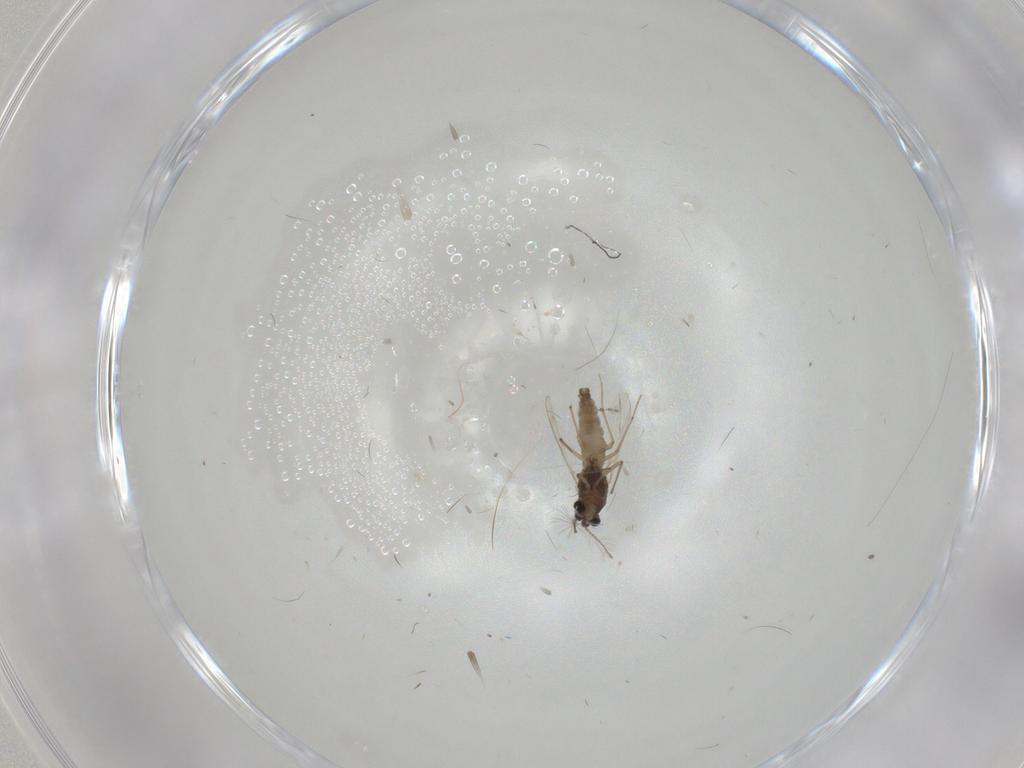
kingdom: Animalia
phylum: Arthropoda
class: Insecta
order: Diptera
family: Chironomidae
